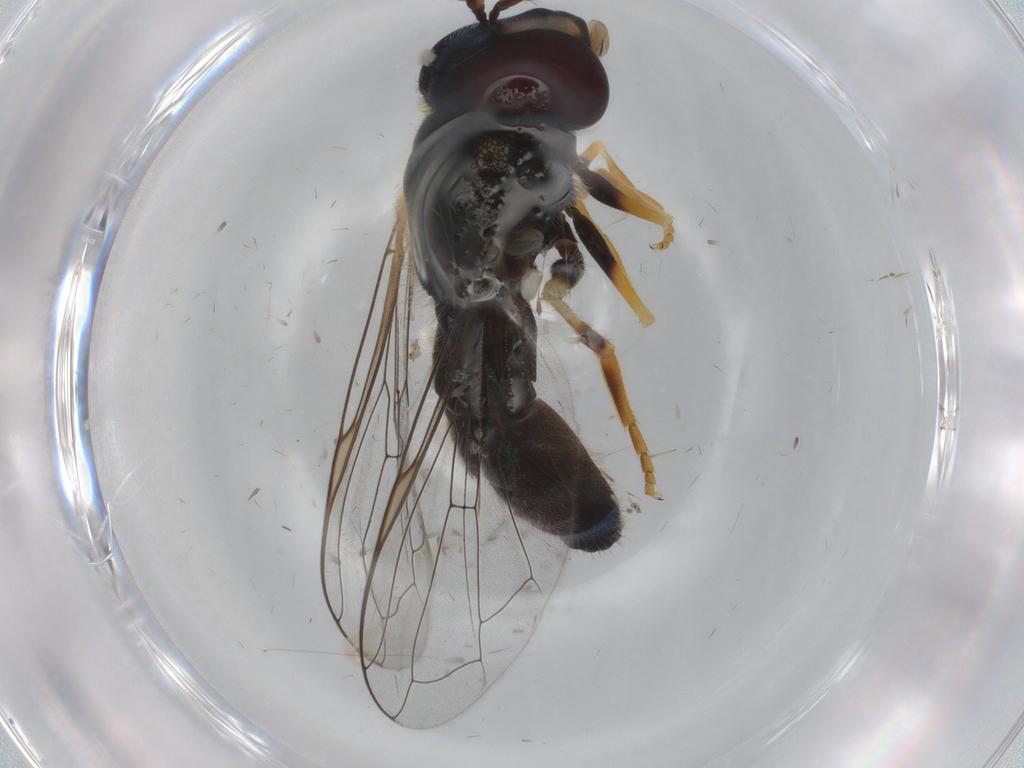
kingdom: Animalia
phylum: Arthropoda
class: Insecta
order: Diptera
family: Syrphidae
